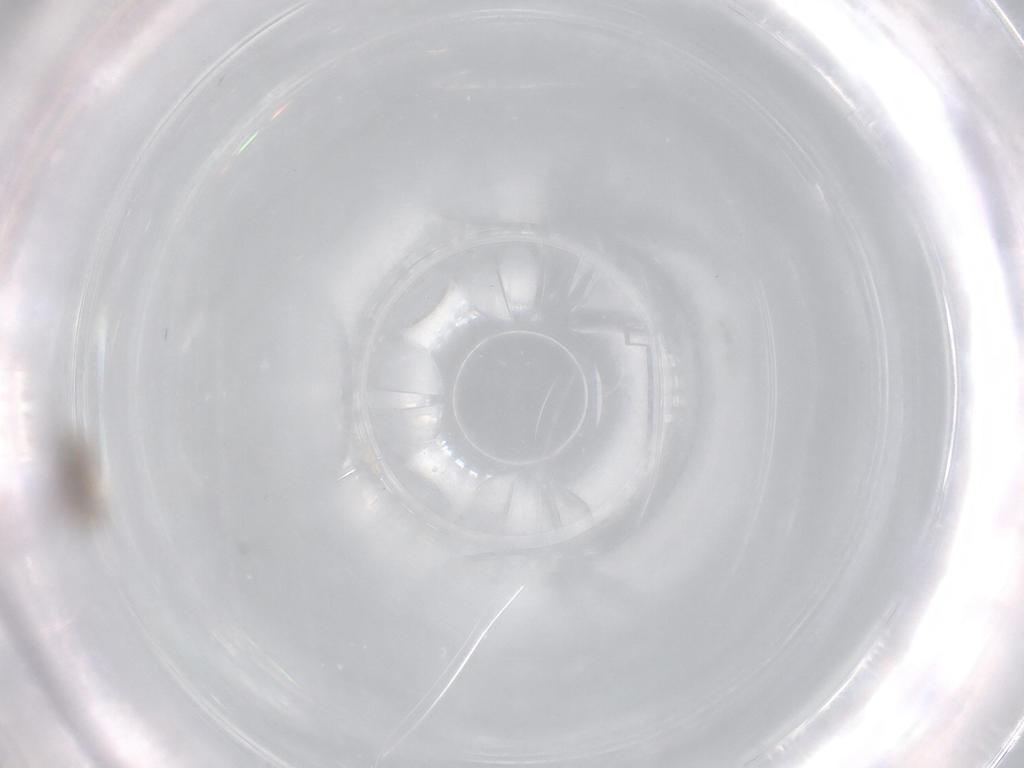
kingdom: Animalia
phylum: Arthropoda
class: Insecta
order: Diptera
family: Cecidomyiidae
